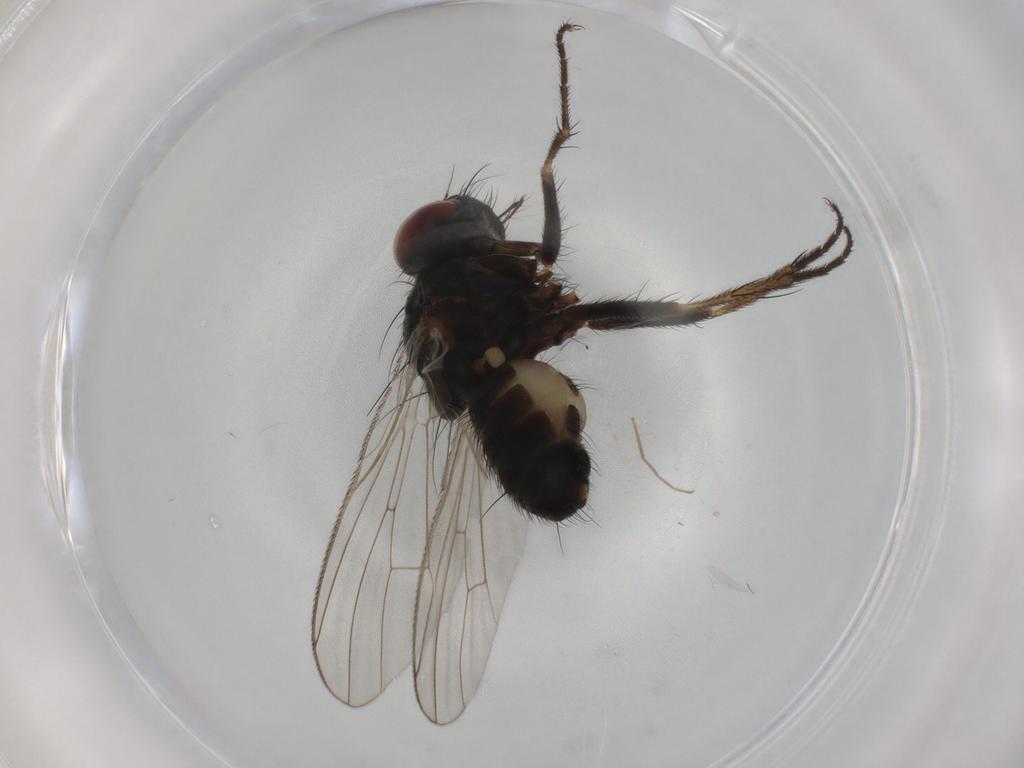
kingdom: Animalia
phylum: Arthropoda
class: Insecta
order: Diptera
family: Chironomidae
